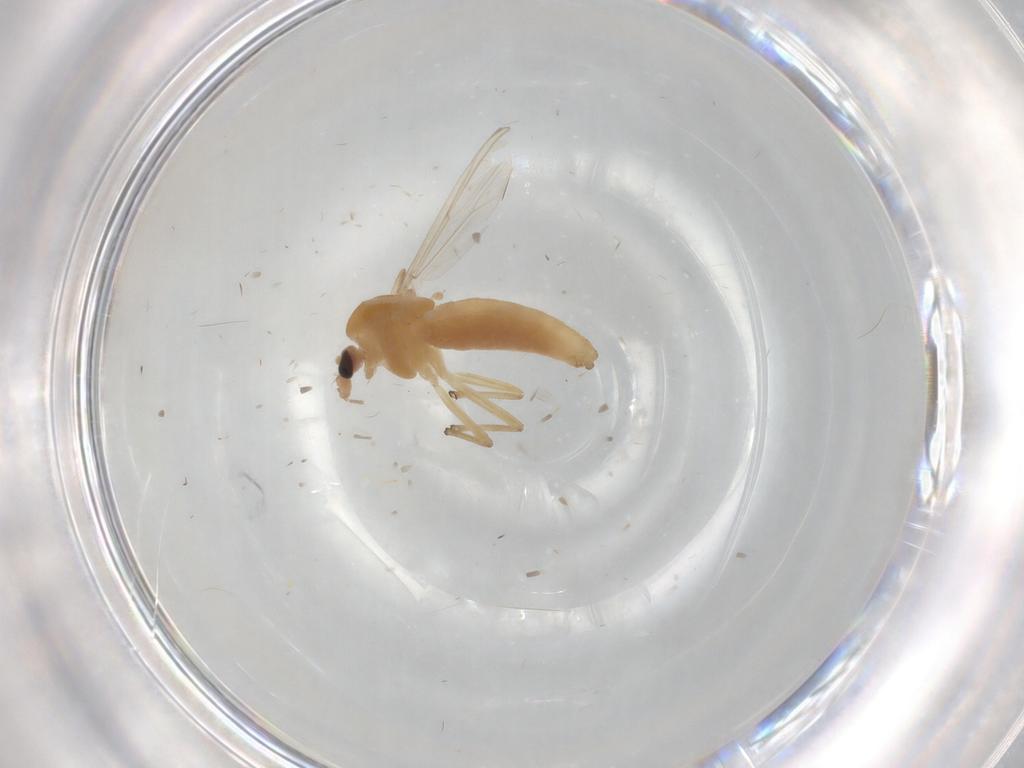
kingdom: Animalia
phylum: Arthropoda
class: Insecta
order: Diptera
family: Chironomidae
